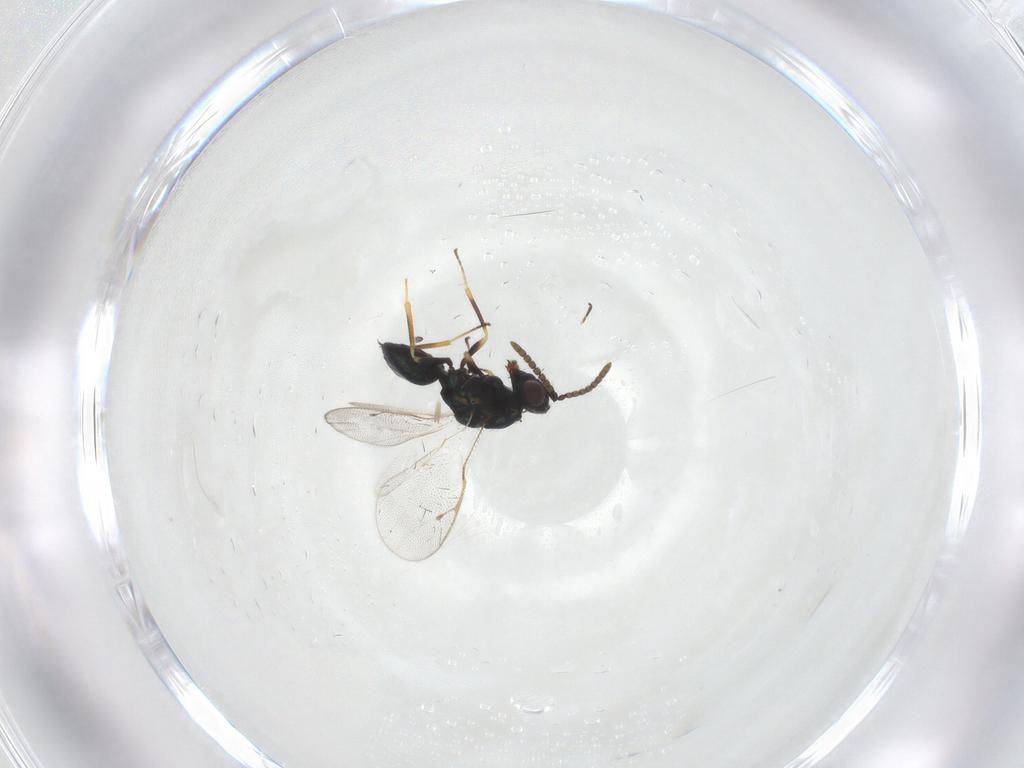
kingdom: Animalia
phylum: Arthropoda
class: Insecta
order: Hymenoptera
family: Pteromalidae
